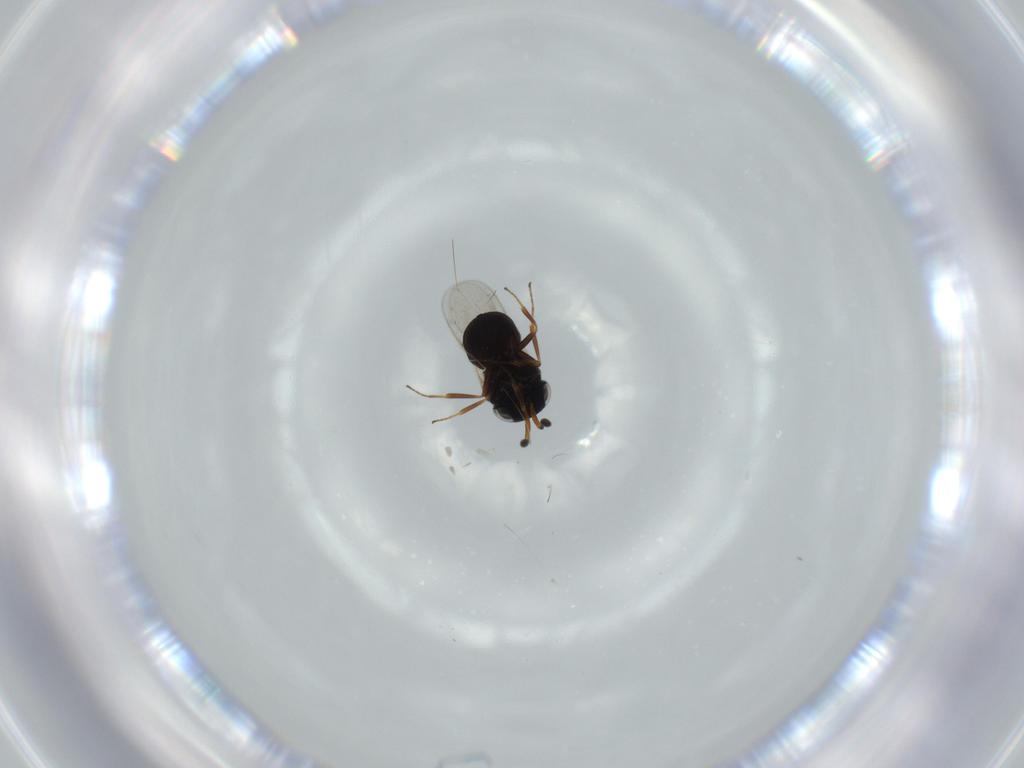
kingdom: Animalia
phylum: Arthropoda
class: Insecta
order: Hymenoptera
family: Scelionidae
